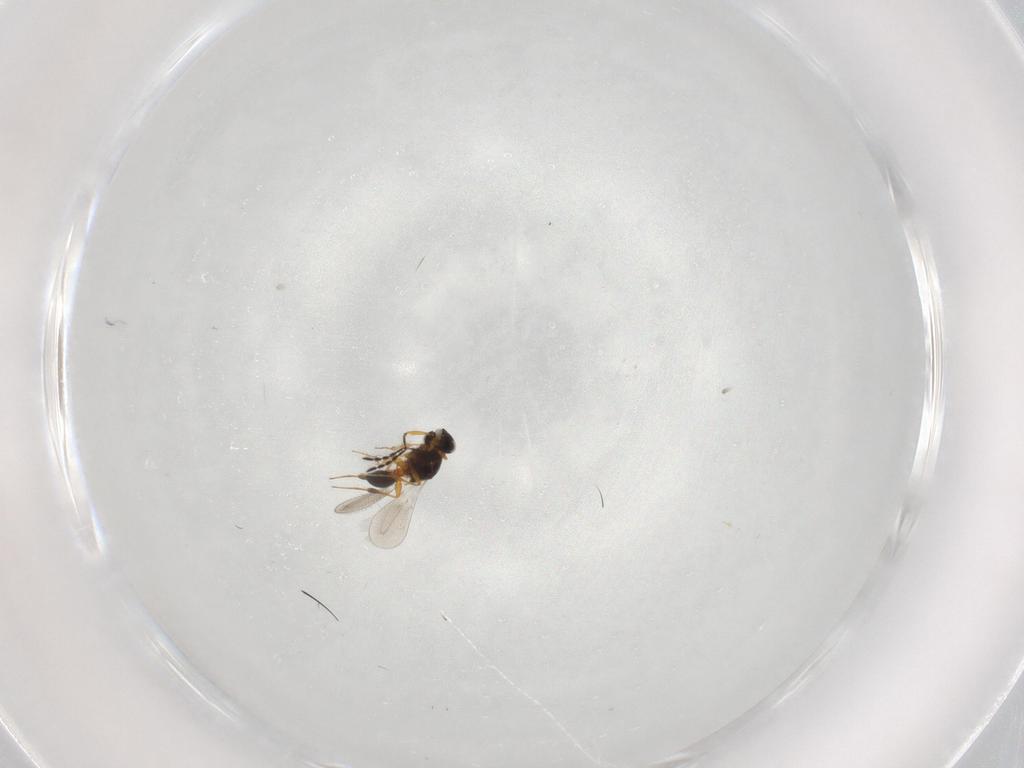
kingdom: Animalia
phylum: Arthropoda
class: Insecta
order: Hymenoptera
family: Platygastridae
